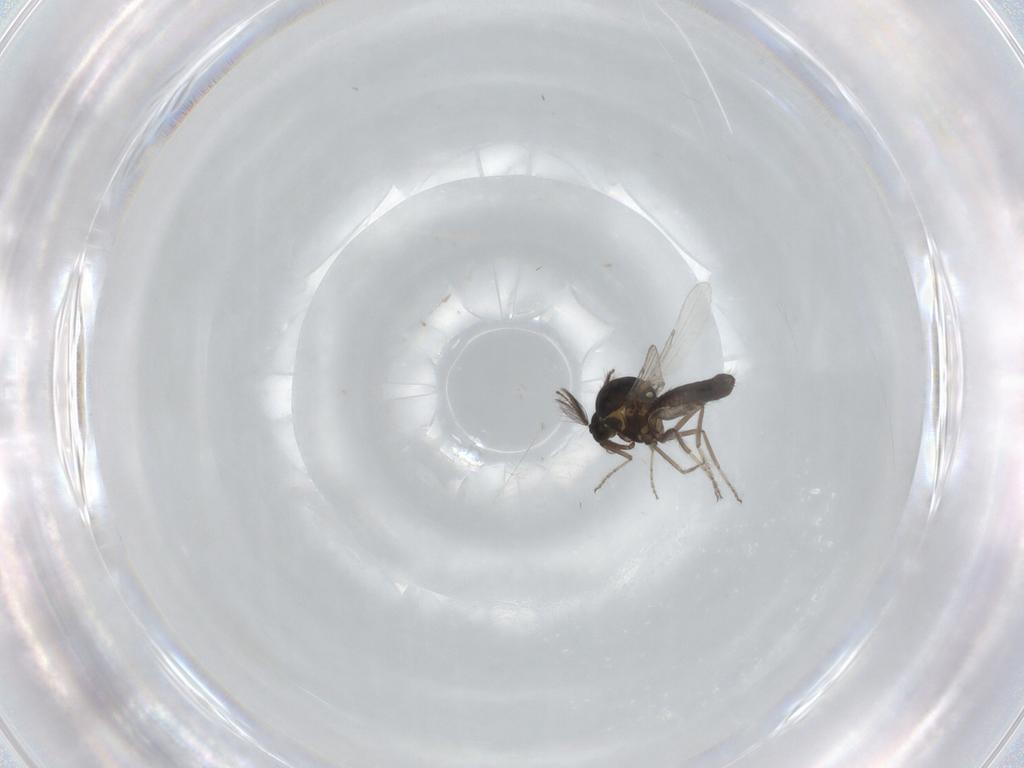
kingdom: Animalia
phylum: Arthropoda
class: Insecta
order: Diptera
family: Ceratopogonidae
